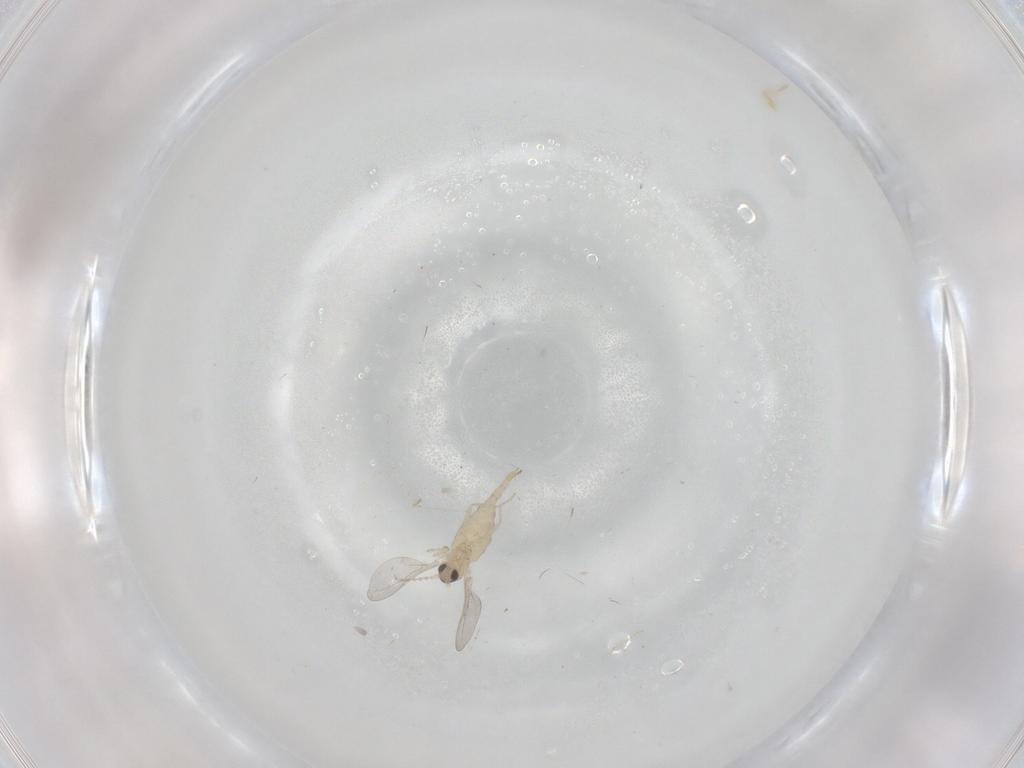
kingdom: Animalia
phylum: Arthropoda
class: Insecta
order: Diptera
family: Cecidomyiidae
